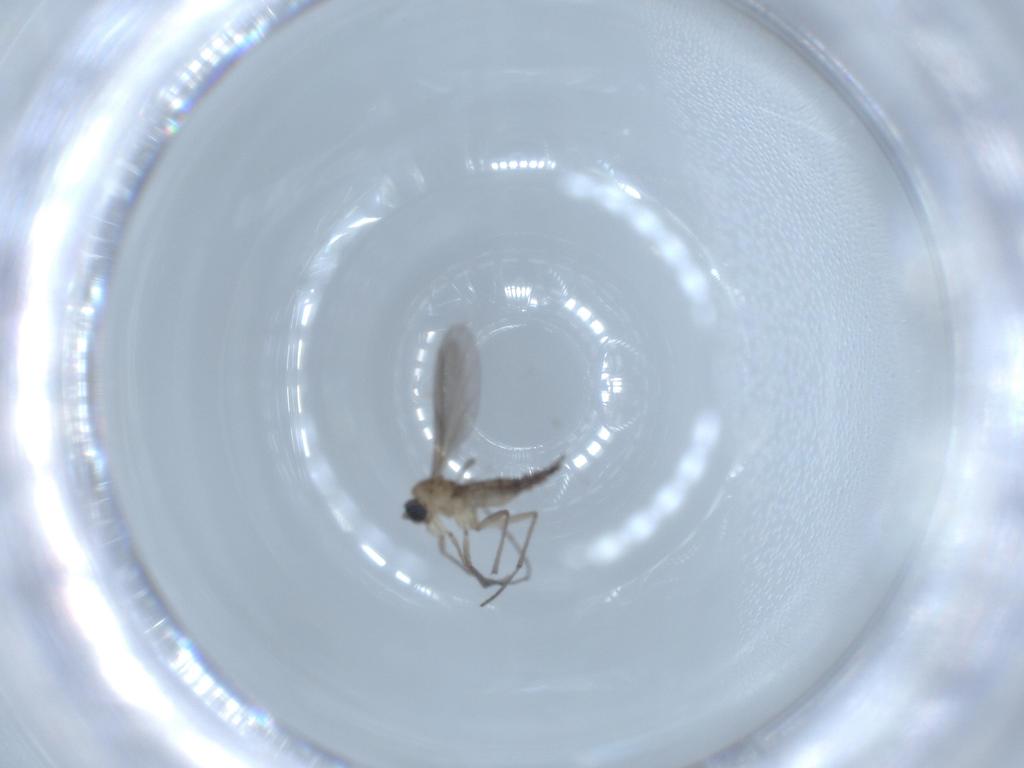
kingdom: Animalia
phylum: Arthropoda
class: Insecta
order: Diptera
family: Sciaridae
